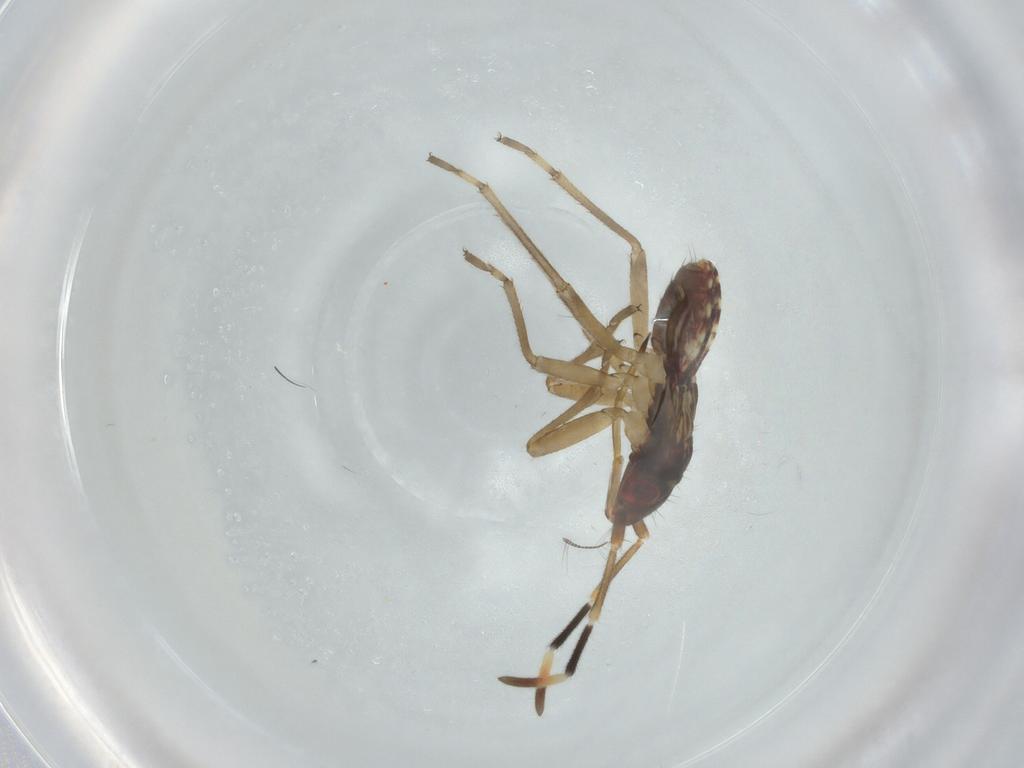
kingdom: Animalia
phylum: Arthropoda
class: Insecta
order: Hemiptera
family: Rhyparochromidae
